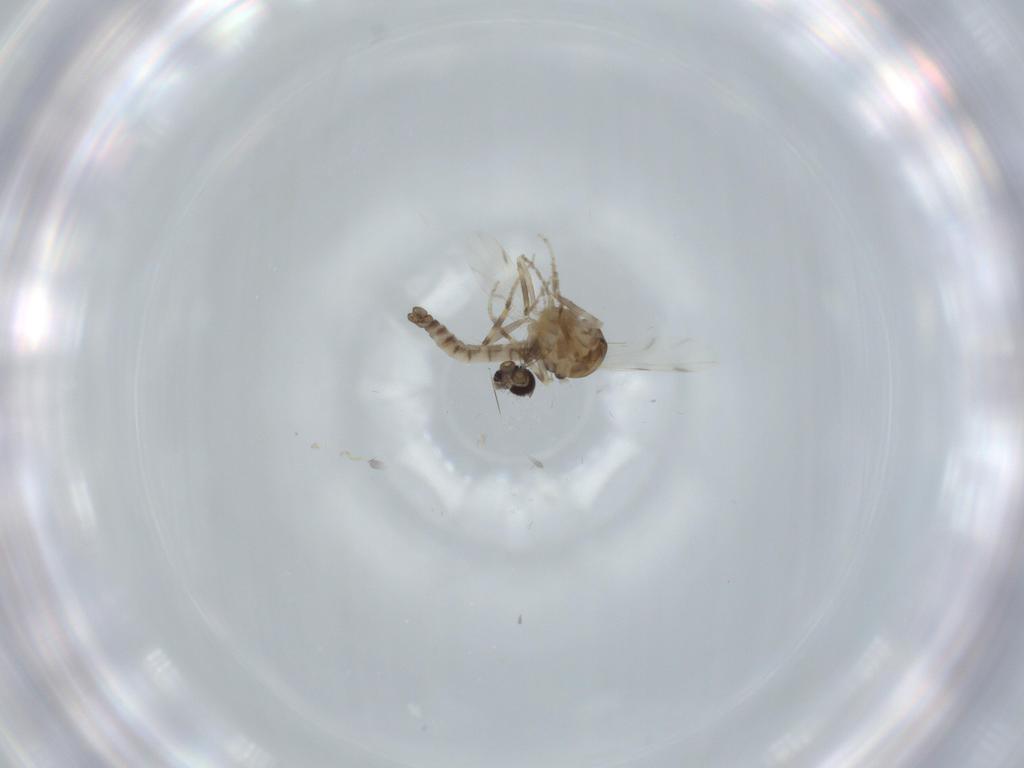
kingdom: Animalia
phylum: Arthropoda
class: Insecta
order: Diptera
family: Ceratopogonidae
